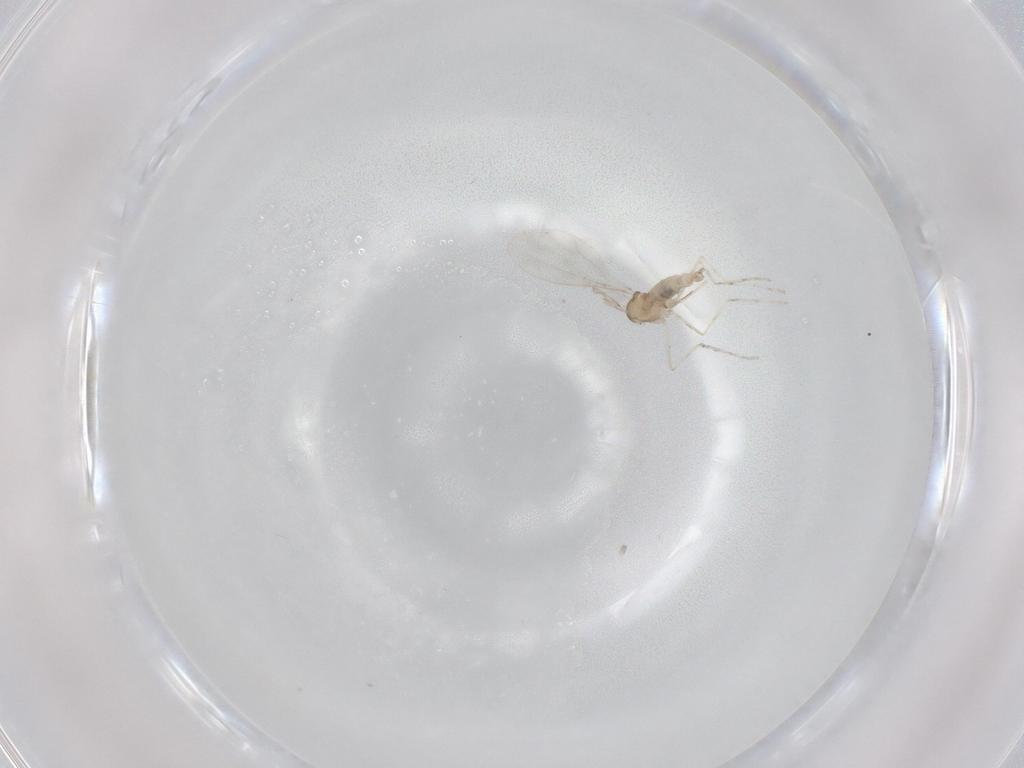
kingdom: Animalia
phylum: Arthropoda
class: Insecta
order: Diptera
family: Cecidomyiidae
